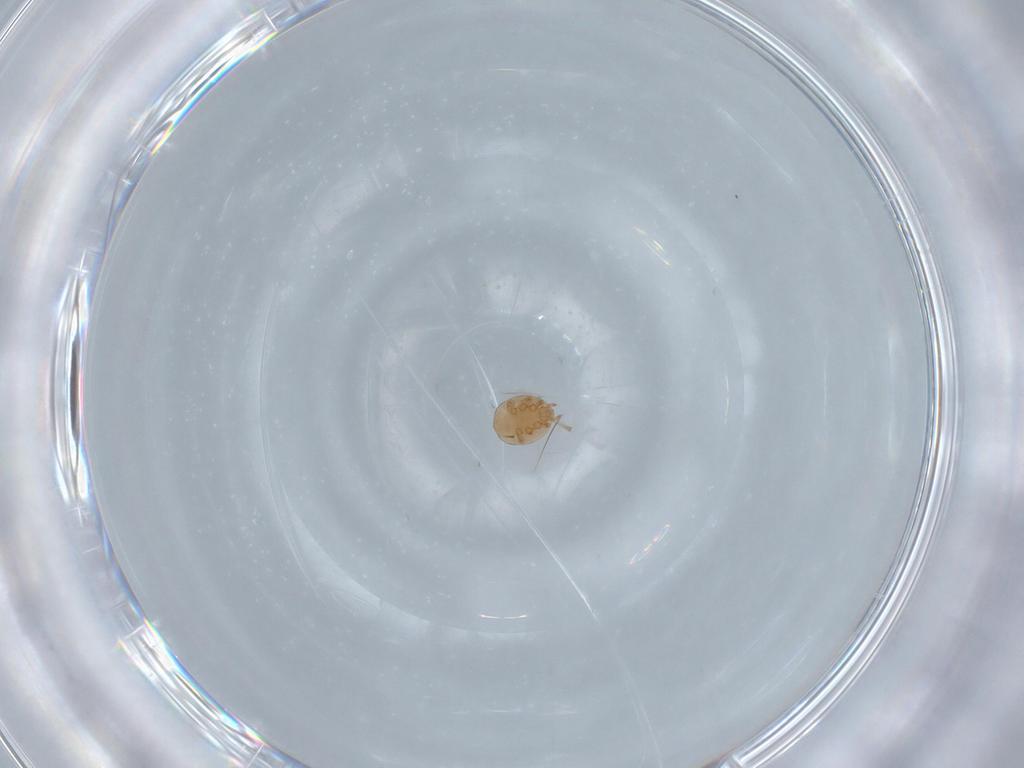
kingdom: Animalia
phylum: Arthropoda
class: Arachnida
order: Mesostigmata
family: Trematuridae
